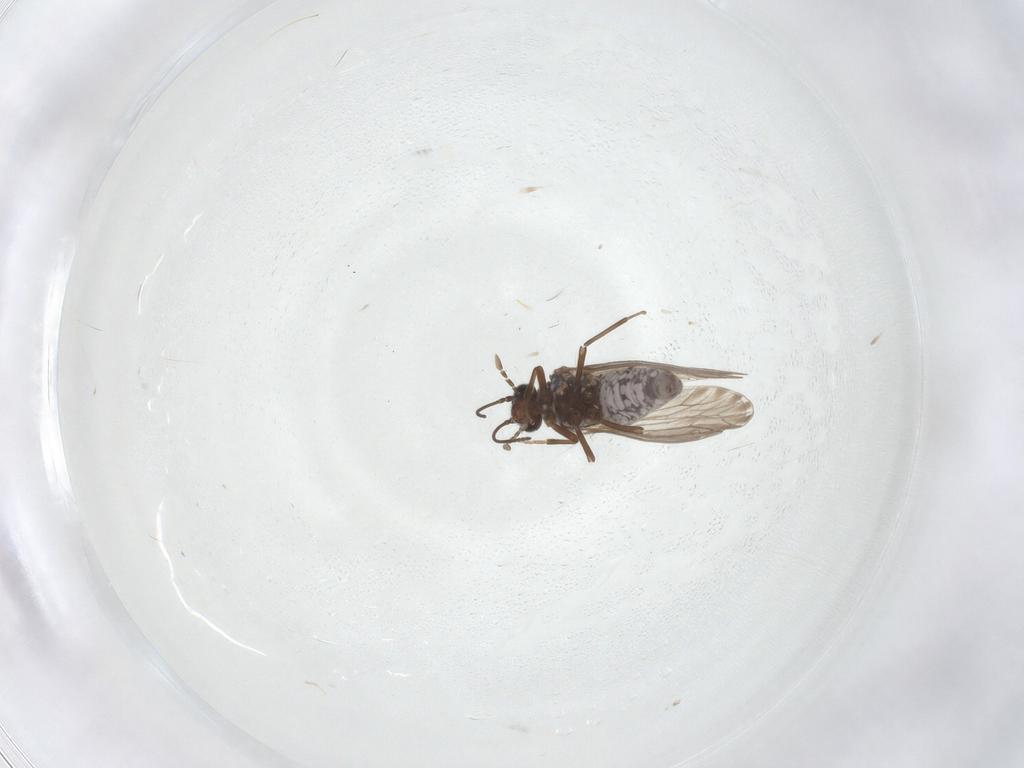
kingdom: Animalia
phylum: Arthropoda
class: Insecta
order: Neuroptera
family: Coniopterygidae
